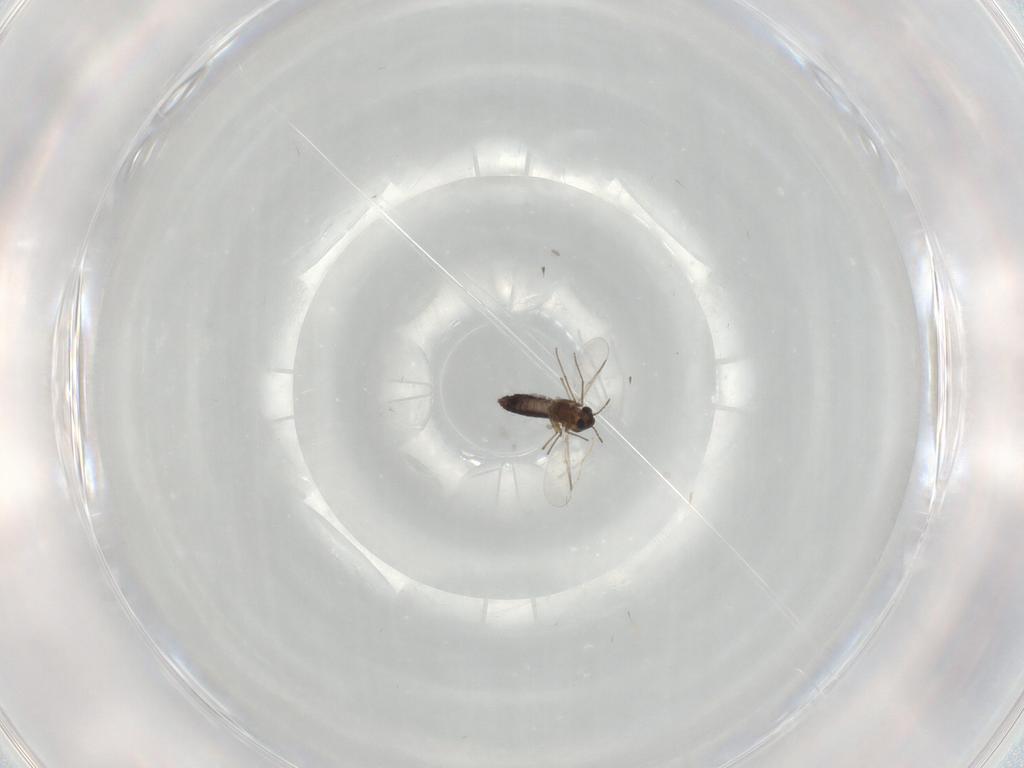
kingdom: Animalia
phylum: Arthropoda
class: Insecta
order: Diptera
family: Chironomidae
